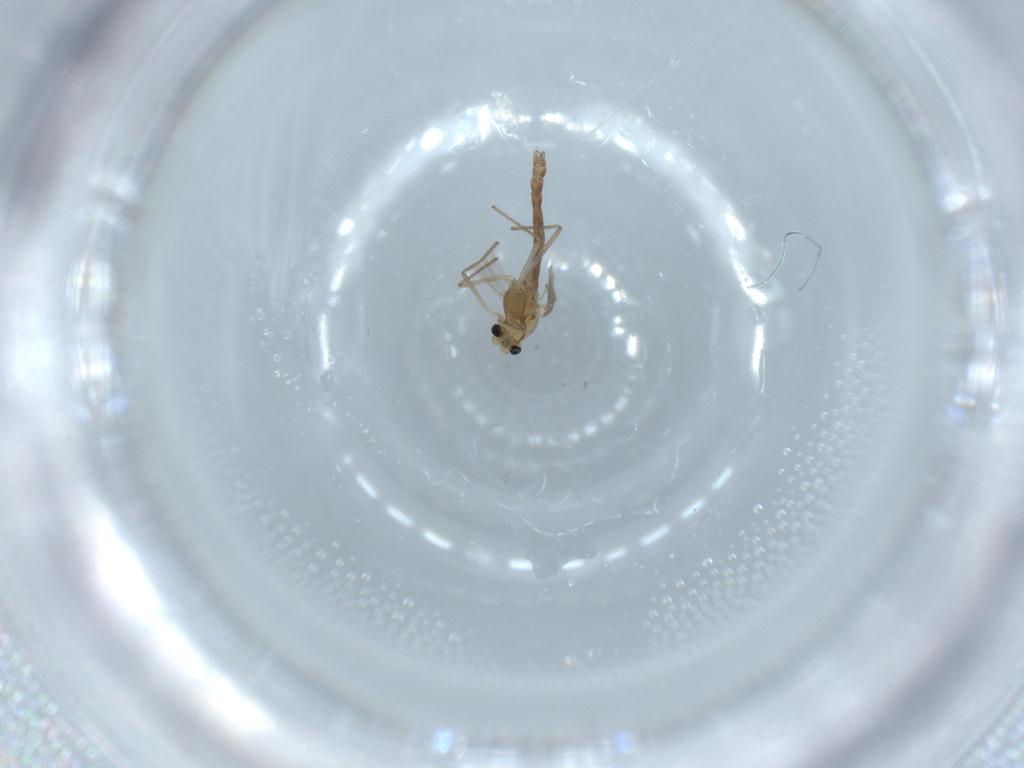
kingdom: Animalia
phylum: Arthropoda
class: Insecta
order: Diptera
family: Chironomidae
